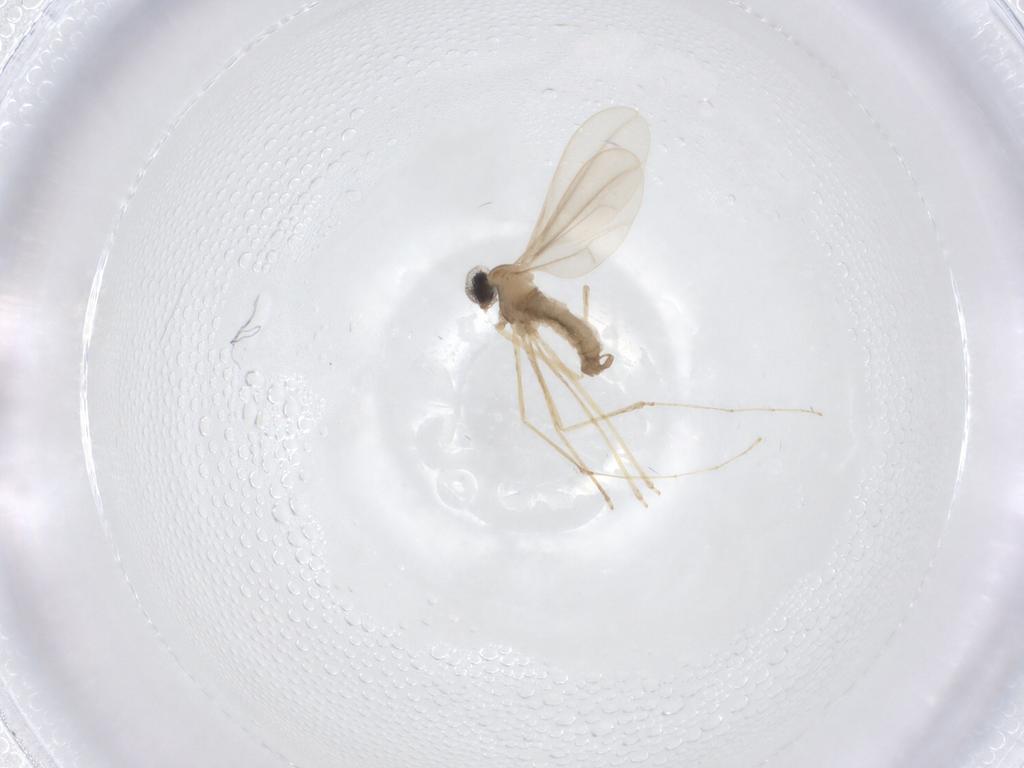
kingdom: Animalia
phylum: Arthropoda
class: Insecta
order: Diptera
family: Cecidomyiidae
